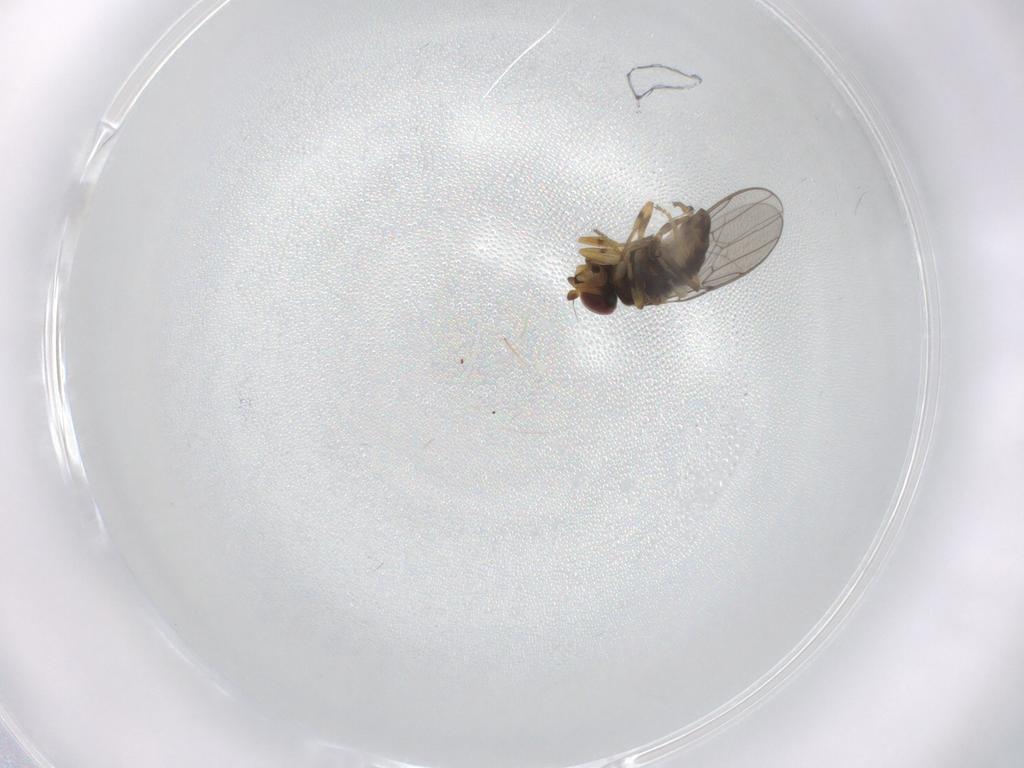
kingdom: Animalia
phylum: Arthropoda
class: Insecta
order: Diptera
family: Chloropidae
